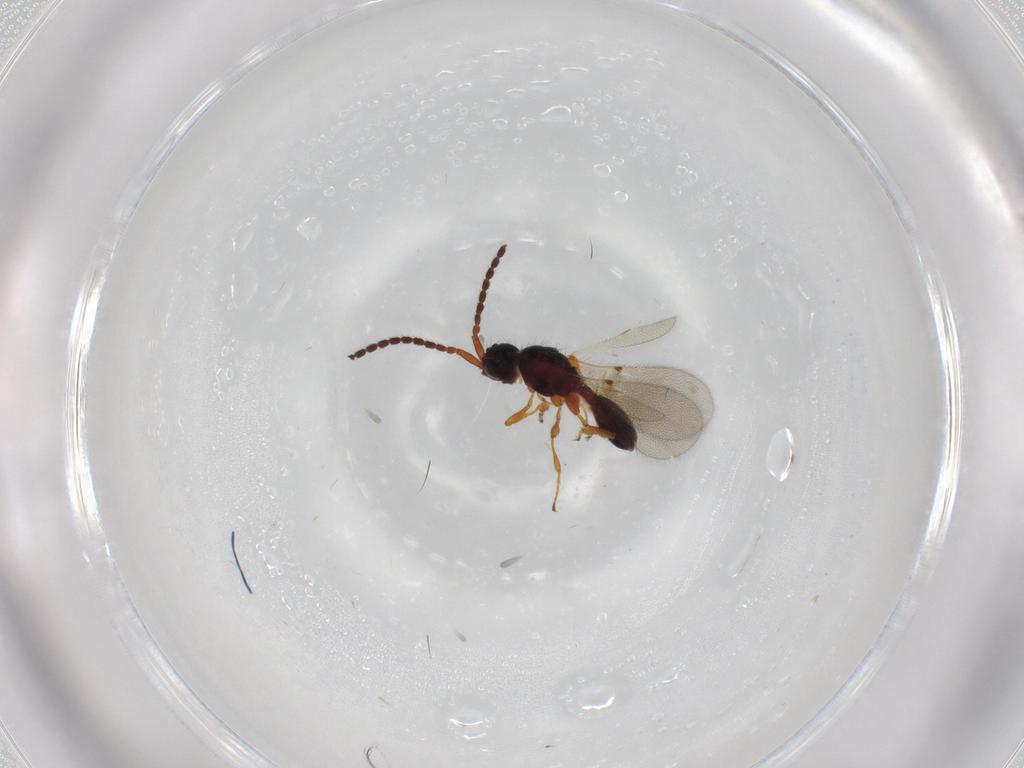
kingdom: Animalia
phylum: Arthropoda
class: Insecta
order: Hymenoptera
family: Diapriidae
